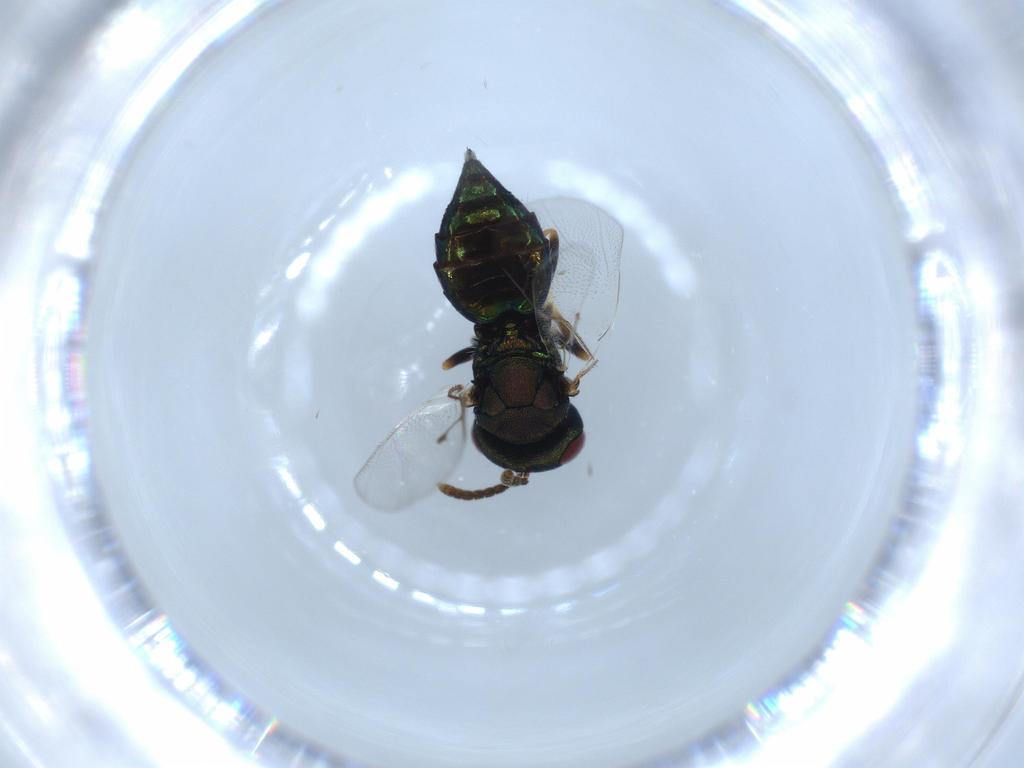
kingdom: Animalia
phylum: Arthropoda
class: Insecta
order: Hymenoptera
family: Pteromalidae
